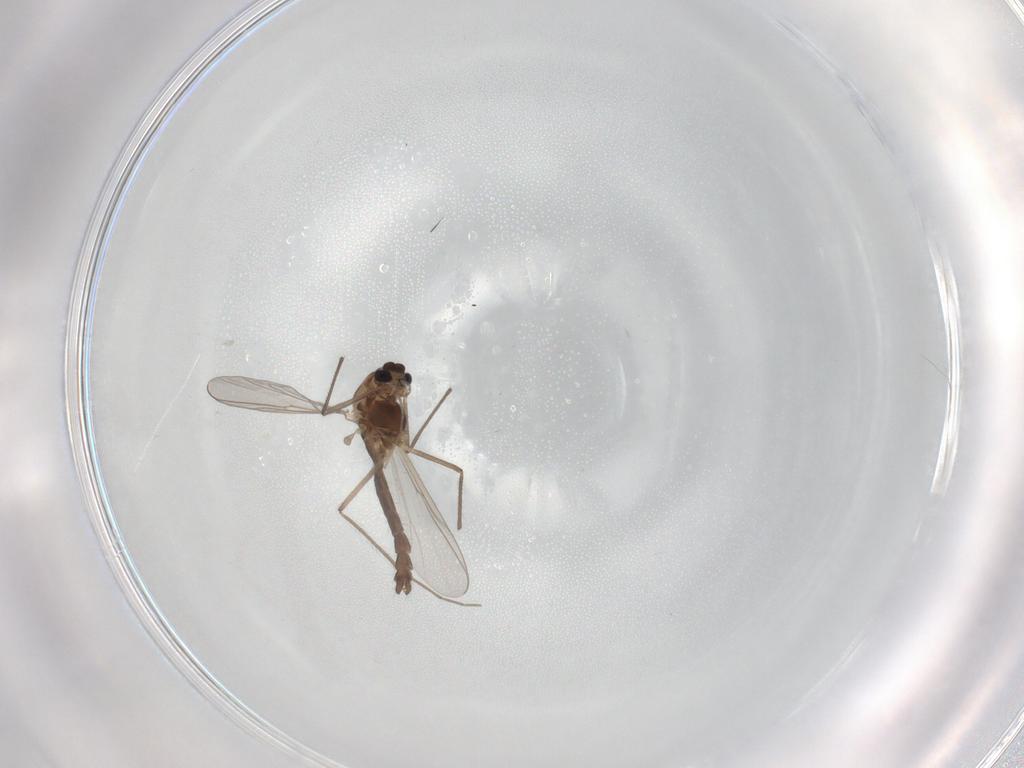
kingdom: Animalia
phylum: Arthropoda
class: Insecta
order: Diptera
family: Chironomidae
